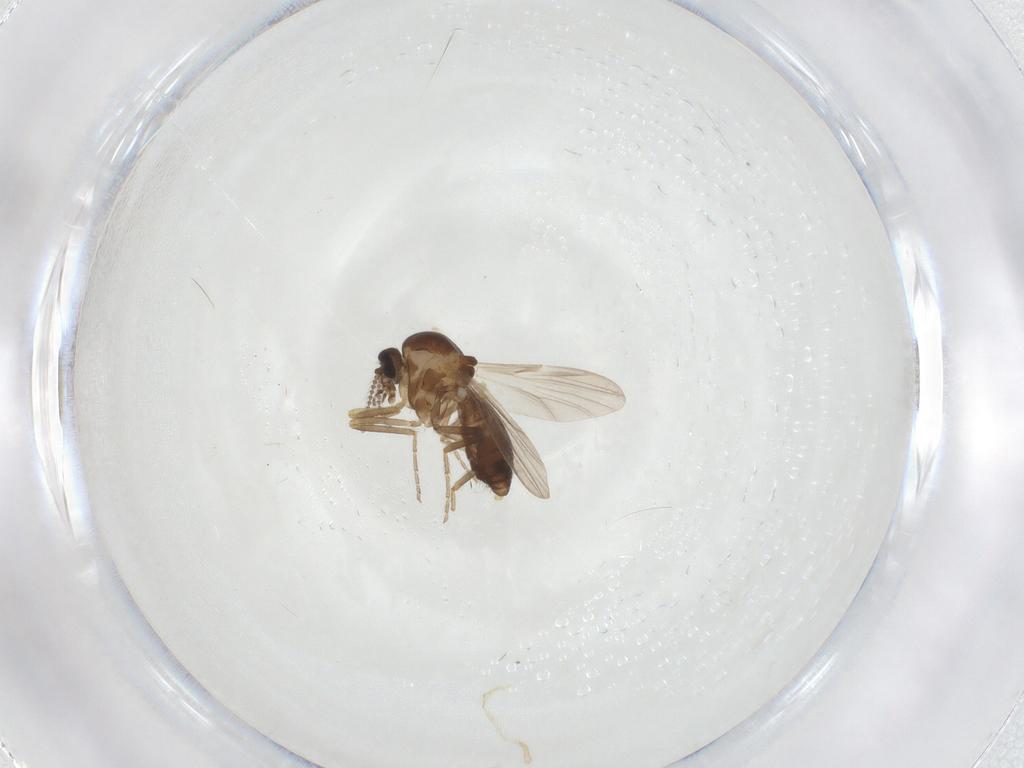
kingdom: Animalia
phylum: Arthropoda
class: Insecta
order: Diptera
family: Ceratopogonidae
